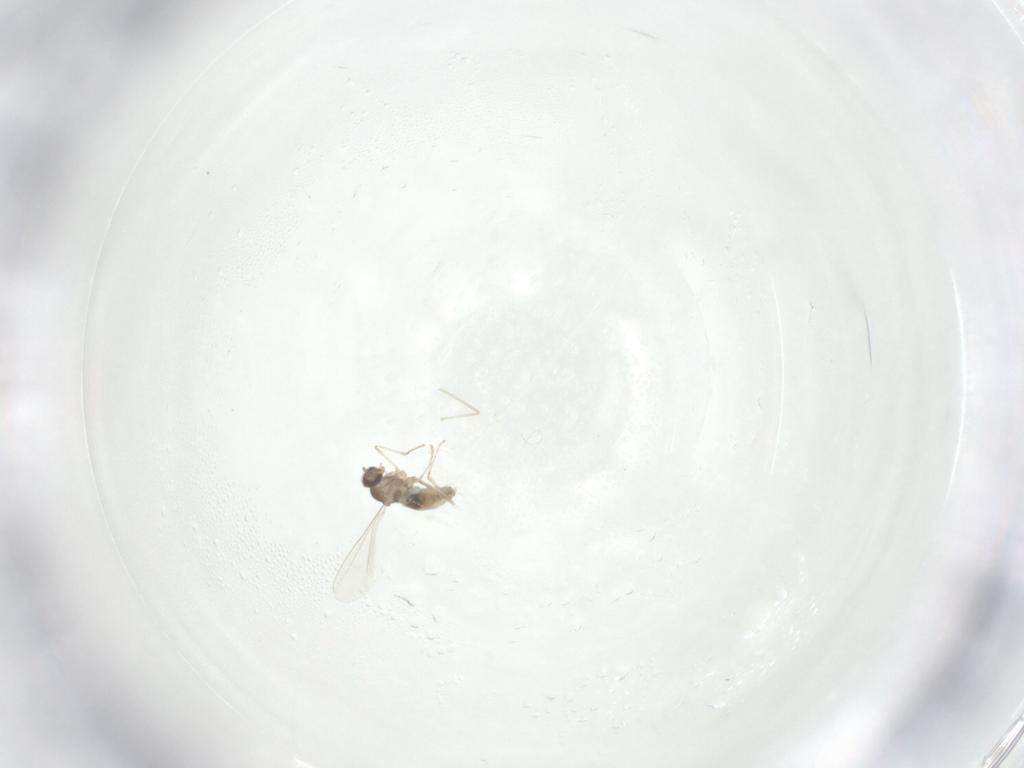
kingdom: Animalia
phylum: Arthropoda
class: Insecta
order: Diptera
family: Cecidomyiidae
